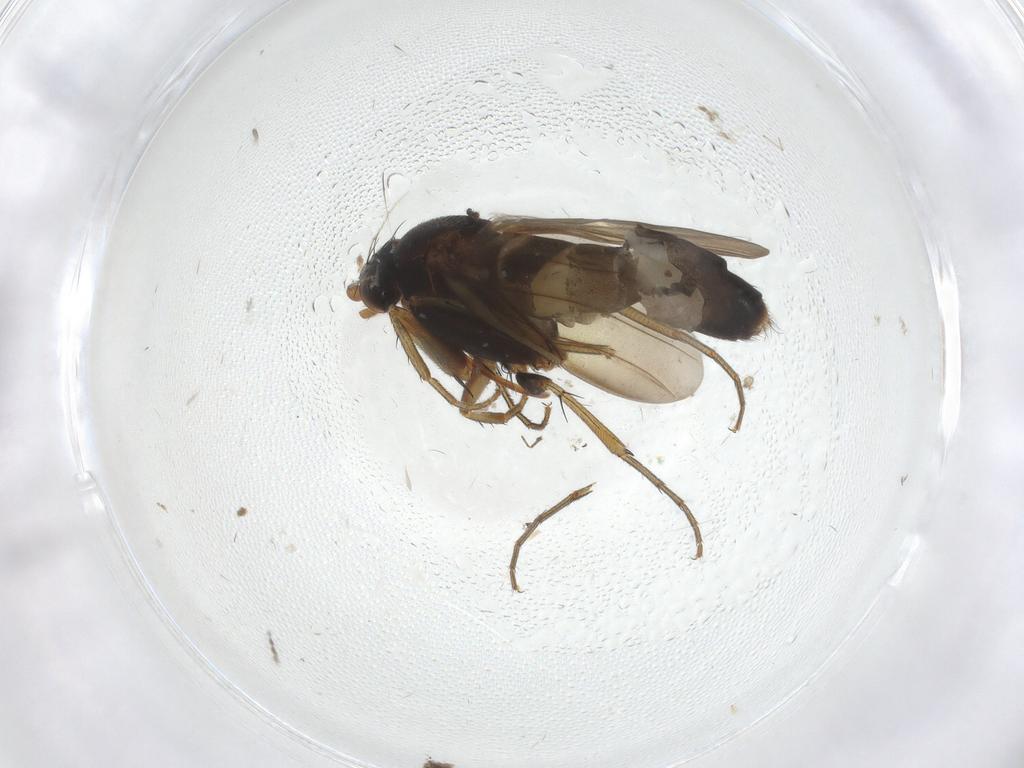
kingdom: Animalia
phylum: Arthropoda
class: Insecta
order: Diptera
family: Phoridae
